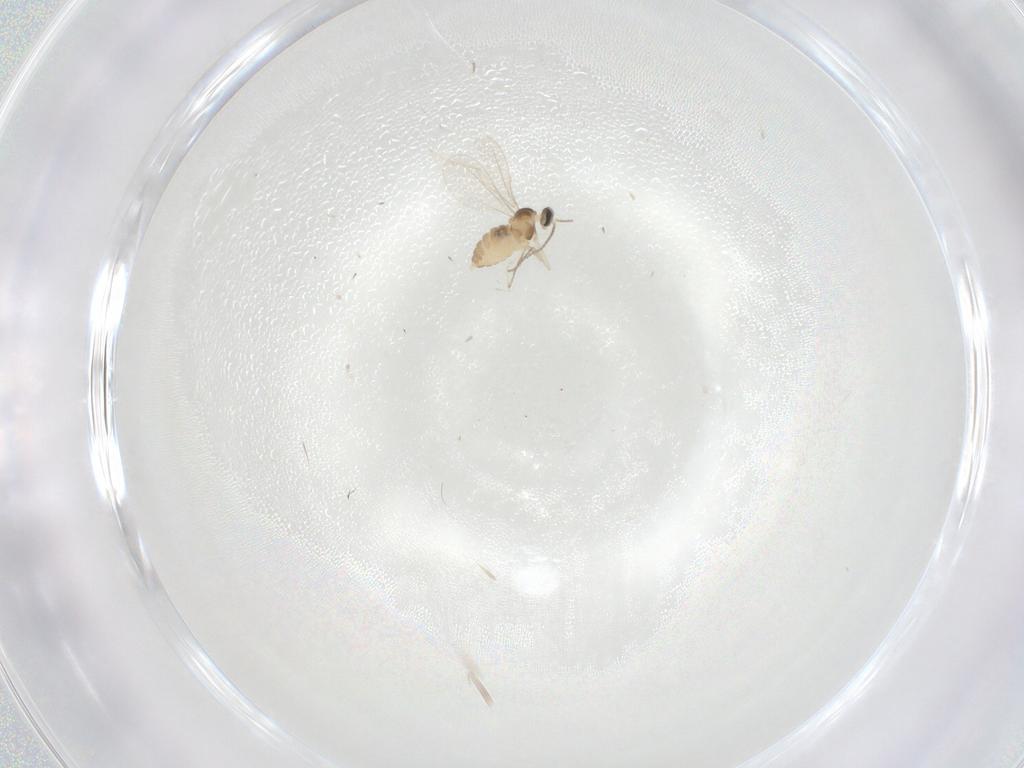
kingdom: Animalia
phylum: Arthropoda
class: Insecta
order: Diptera
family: Cecidomyiidae
